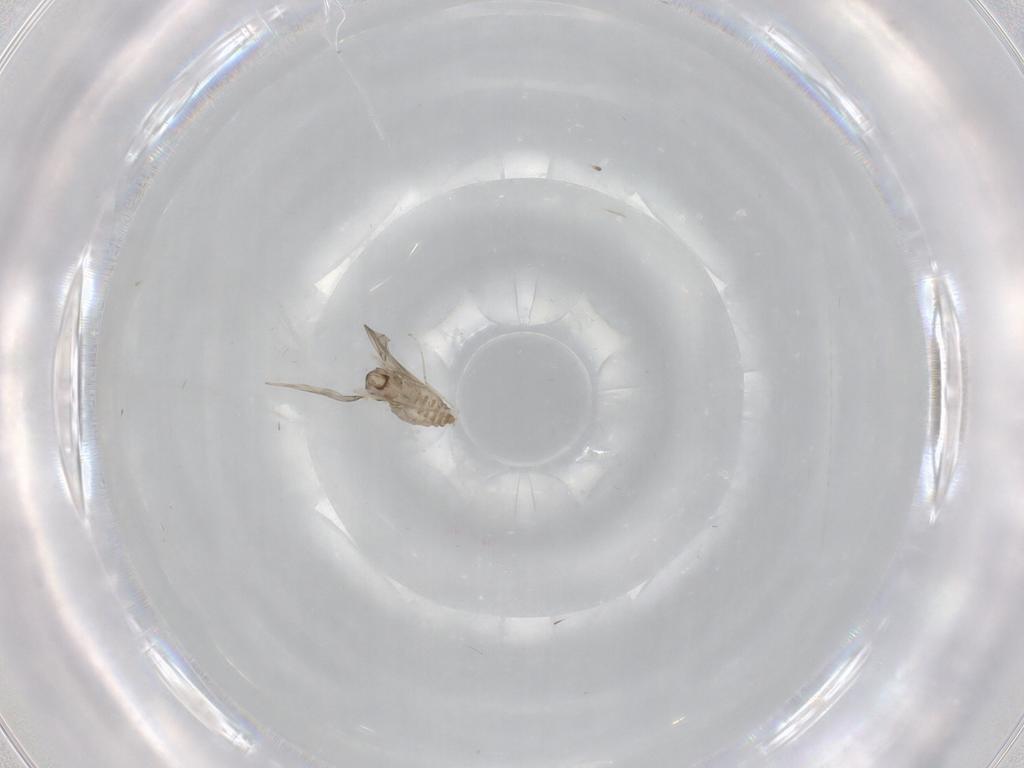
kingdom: Animalia
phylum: Arthropoda
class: Insecta
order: Diptera
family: Cecidomyiidae
